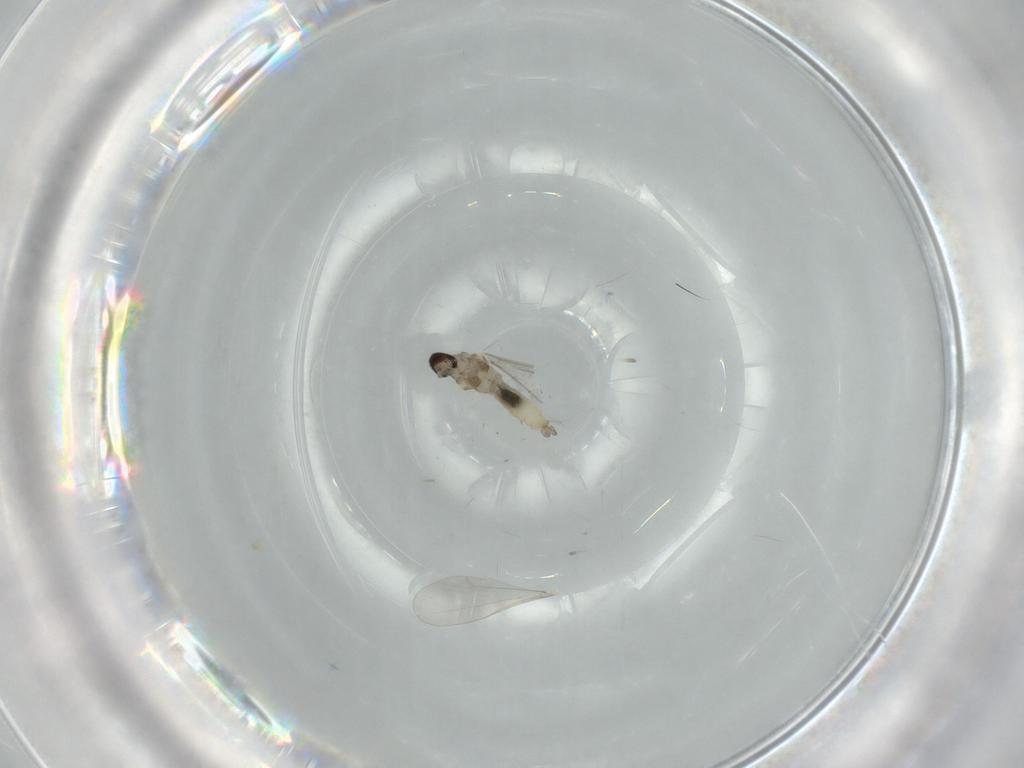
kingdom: Animalia
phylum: Arthropoda
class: Insecta
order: Diptera
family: Cecidomyiidae
